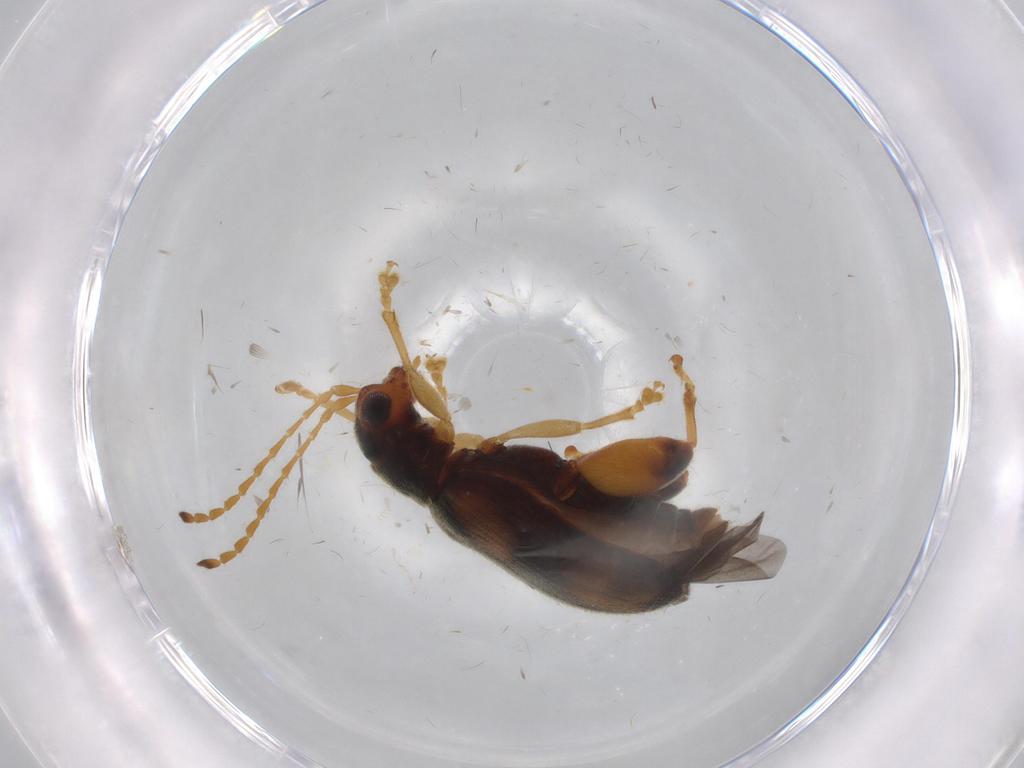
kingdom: Animalia
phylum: Arthropoda
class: Insecta
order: Coleoptera
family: Chrysomelidae
